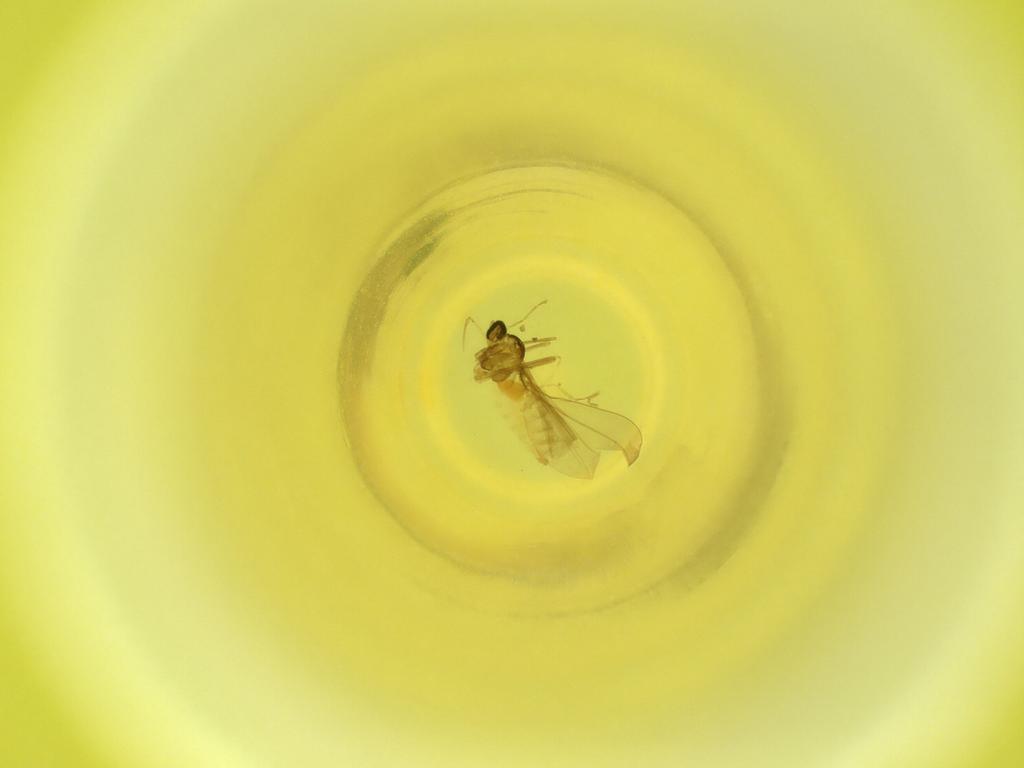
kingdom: Animalia
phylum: Arthropoda
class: Insecta
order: Diptera
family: Cecidomyiidae
